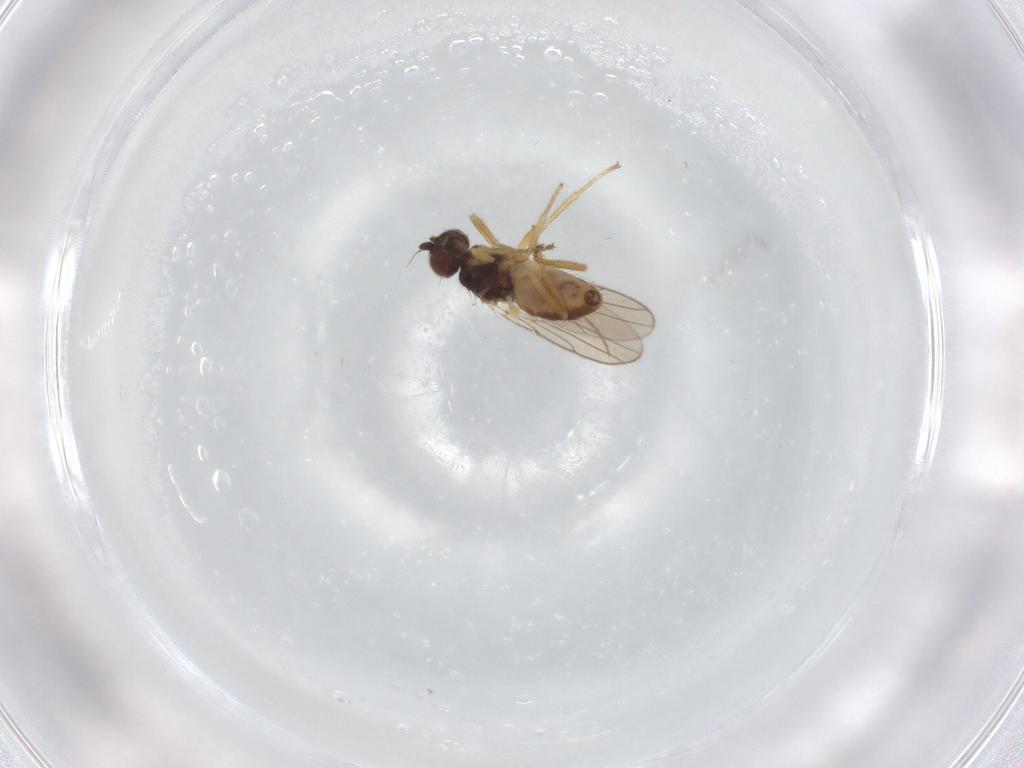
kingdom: Animalia
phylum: Arthropoda
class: Insecta
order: Diptera
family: Chloropidae
